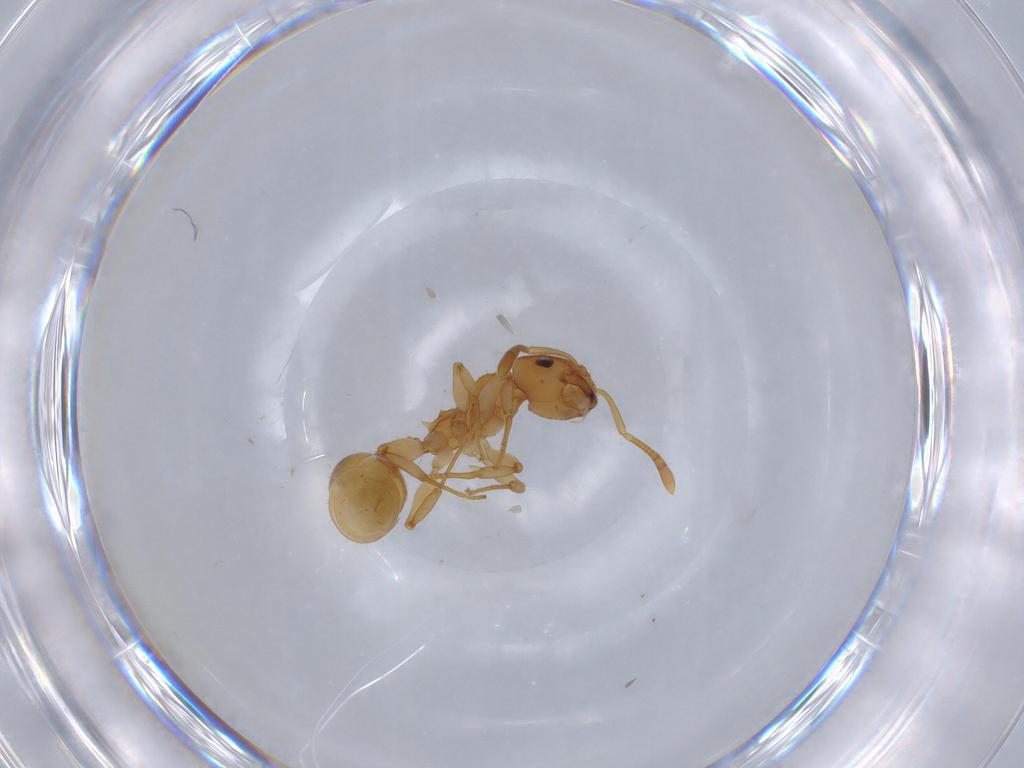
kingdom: Animalia
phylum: Arthropoda
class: Insecta
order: Hymenoptera
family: Formicidae
